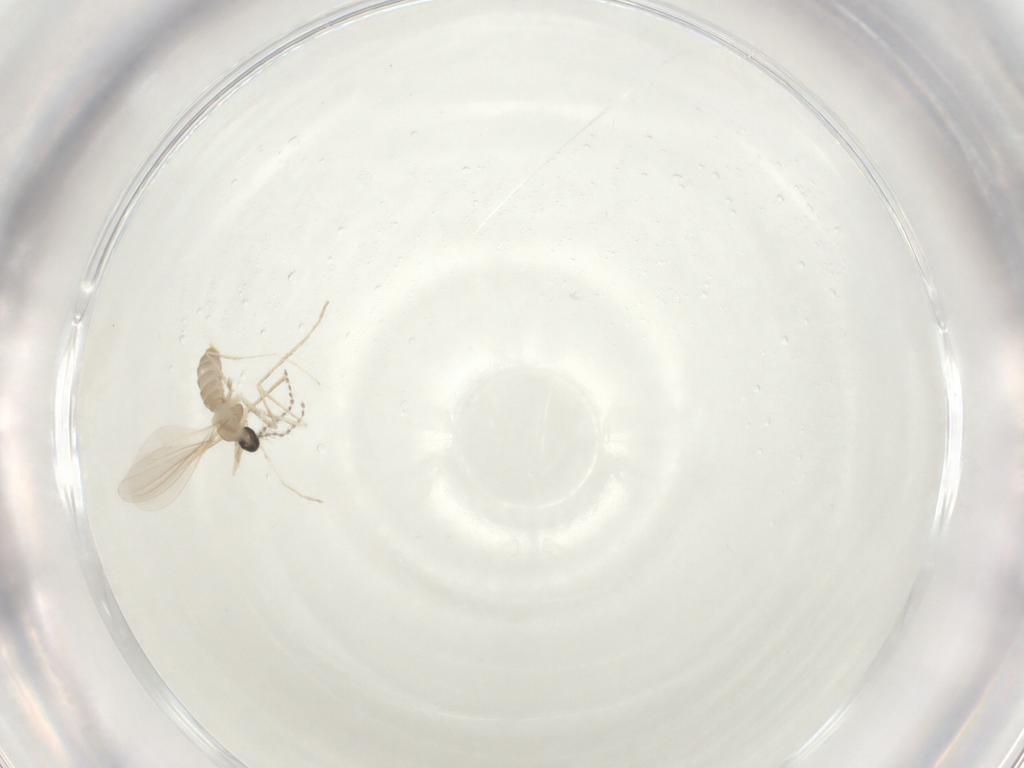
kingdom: Animalia
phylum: Arthropoda
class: Insecta
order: Diptera
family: Cecidomyiidae
